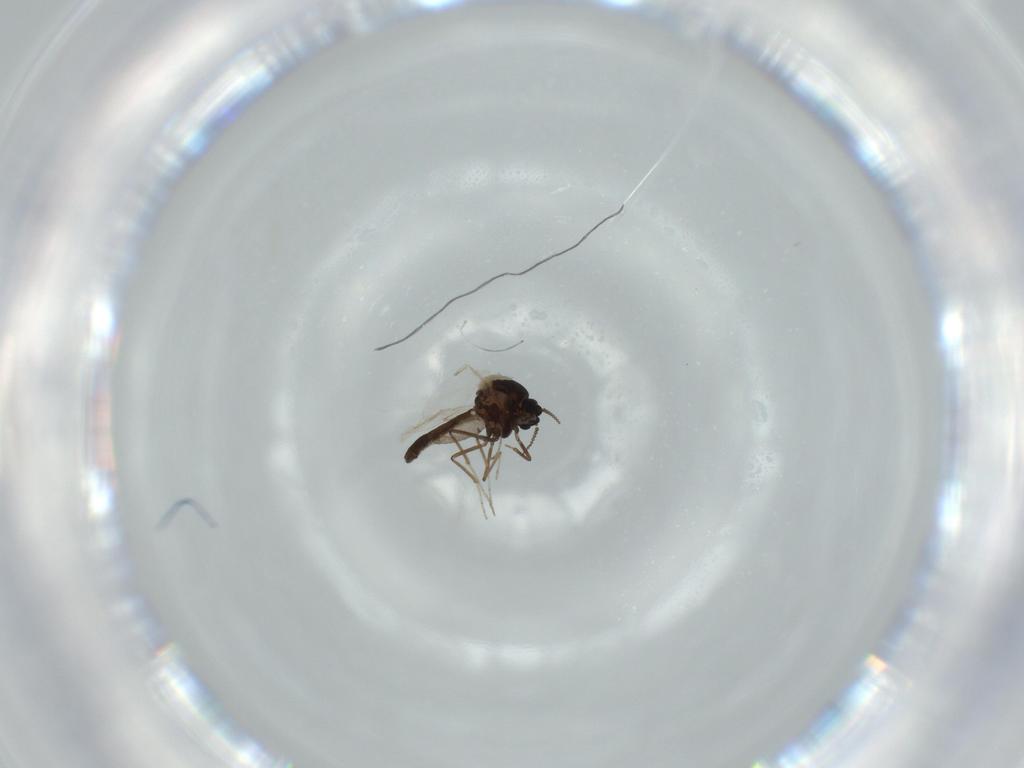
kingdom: Animalia
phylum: Arthropoda
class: Insecta
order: Diptera
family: Ceratopogonidae
